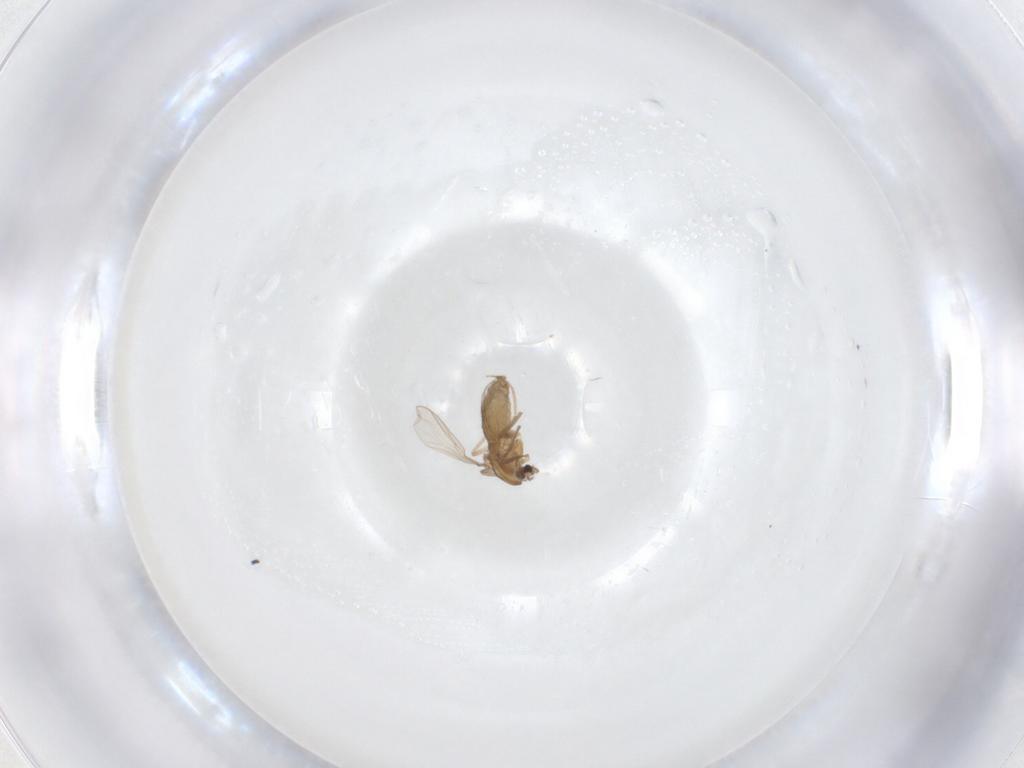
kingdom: Animalia
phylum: Arthropoda
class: Insecta
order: Diptera
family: Chironomidae
